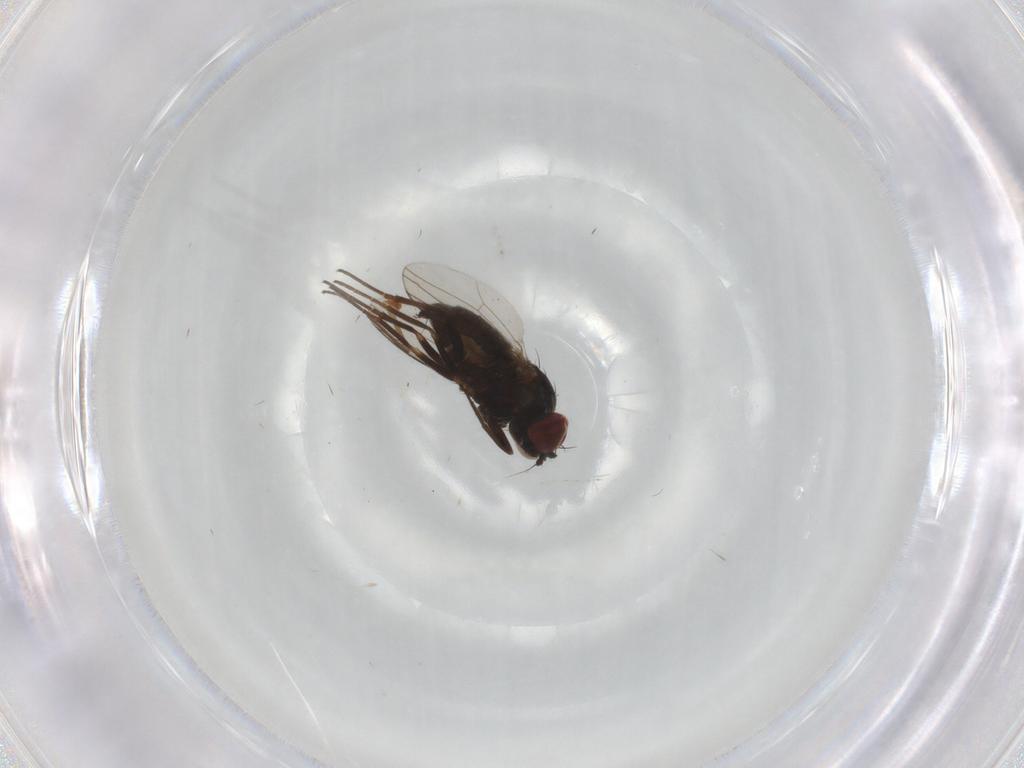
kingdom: Animalia
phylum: Arthropoda
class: Insecta
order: Diptera
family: Dolichopodidae
